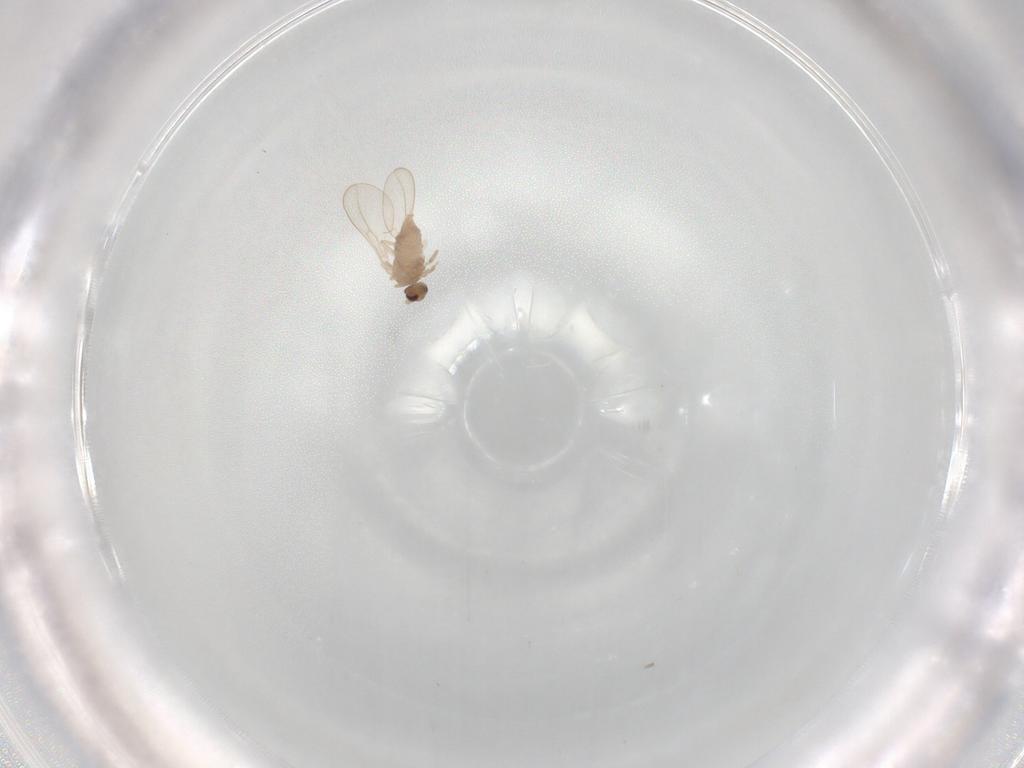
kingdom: Animalia
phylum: Arthropoda
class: Insecta
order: Diptera
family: Cecidomyiidae
